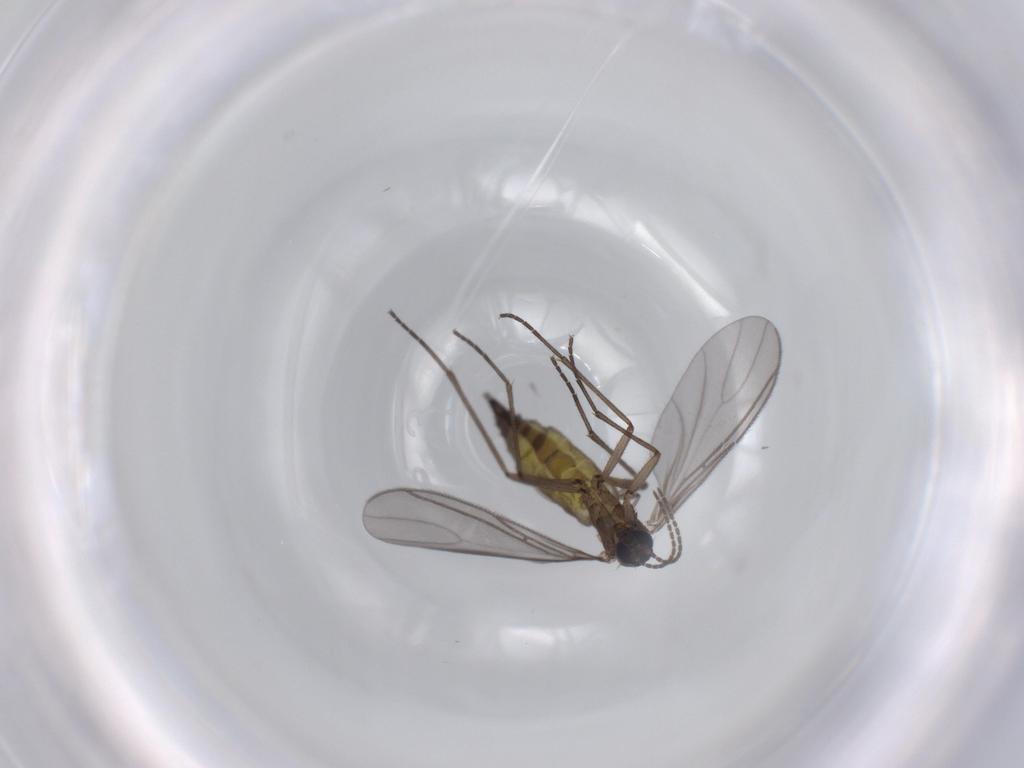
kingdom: Animalia
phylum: Arthropoda
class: Insecta
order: Diptera
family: Sciaridae
